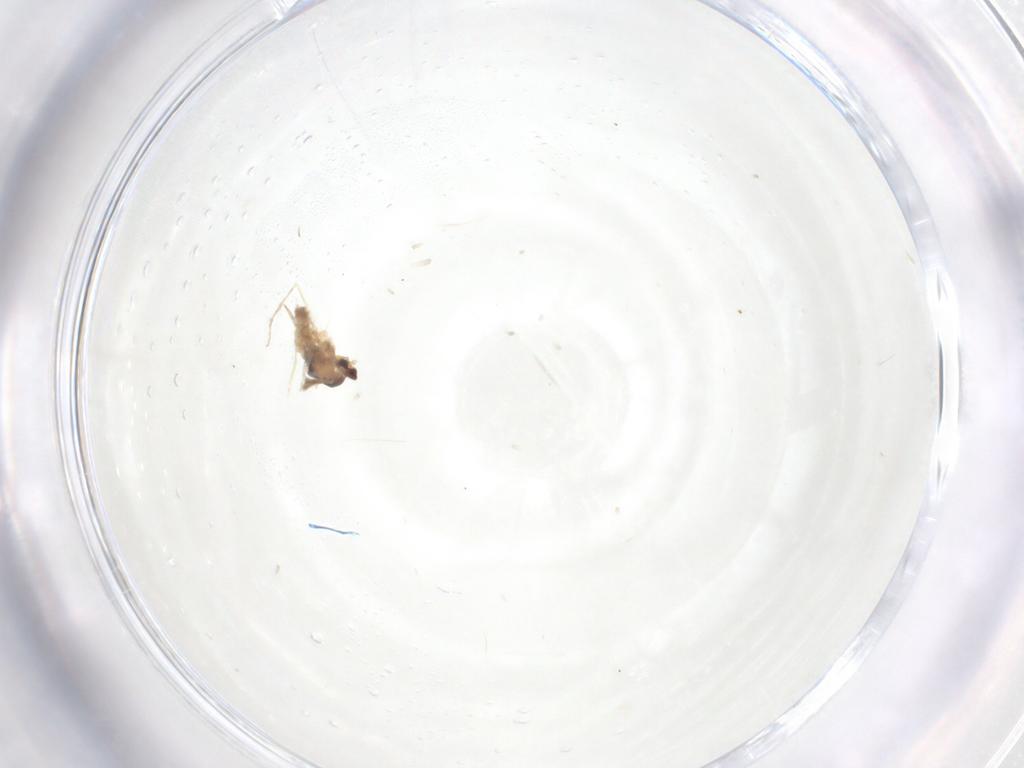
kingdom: Animalia
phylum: Arthropoda
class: Insecta
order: Diptera
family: Cecidomyiidae
